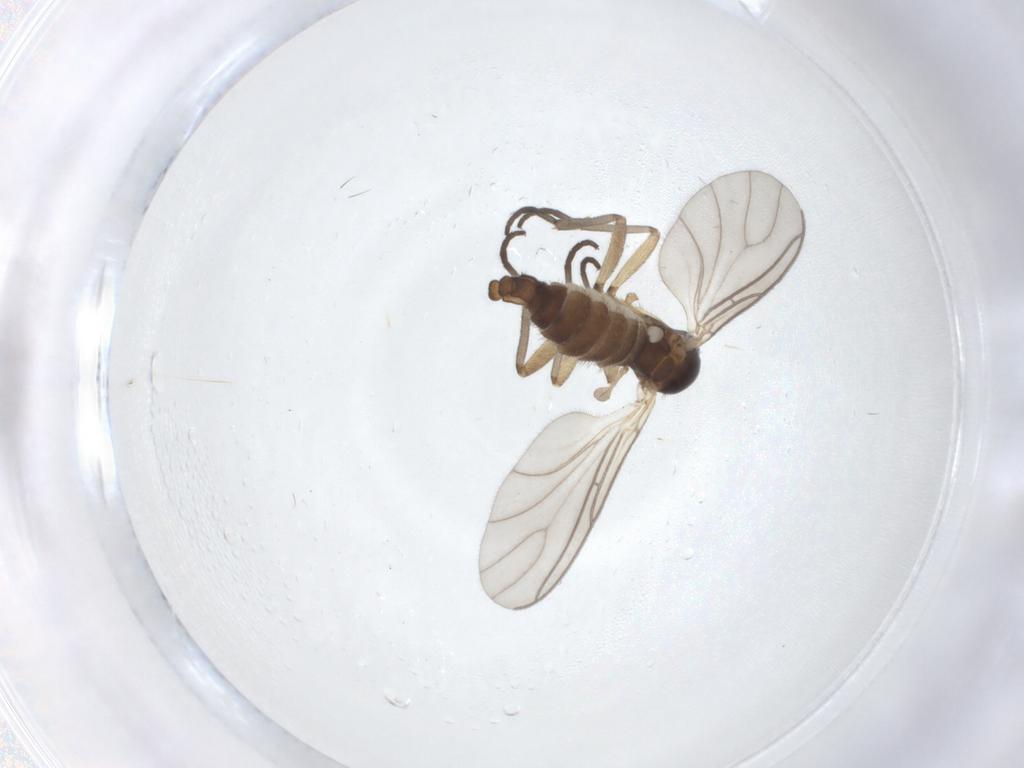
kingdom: Animalia
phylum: Arthropoda
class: Insecta
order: Diptera
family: Sciaridae
